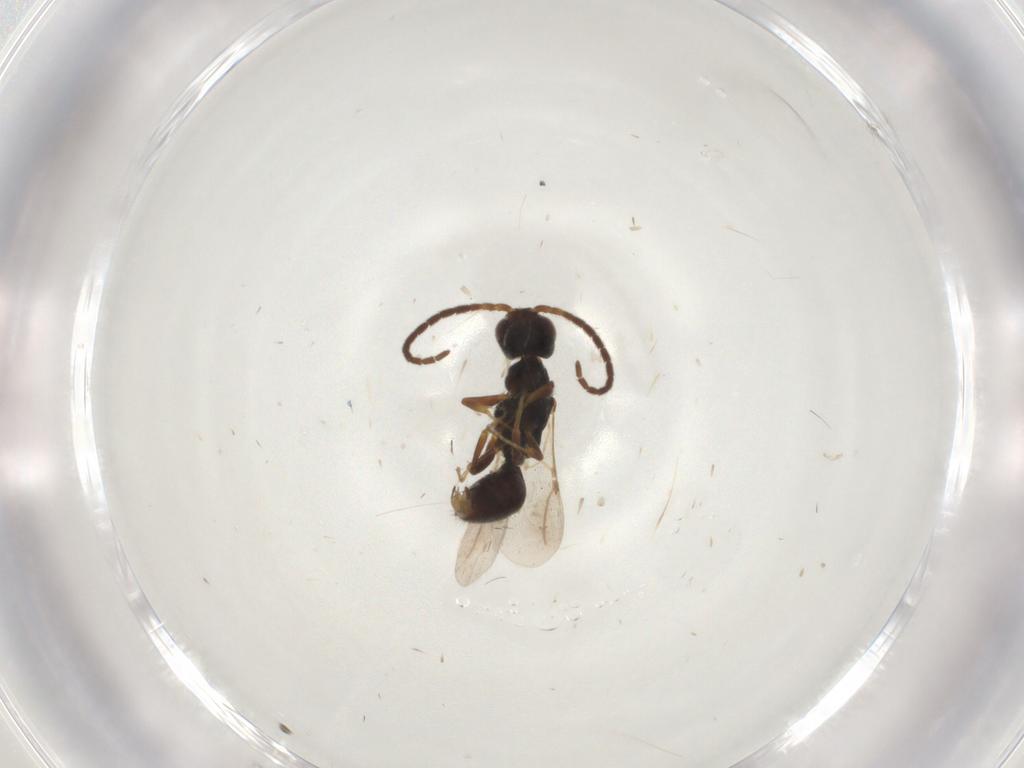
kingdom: Animalia
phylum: Arthropoda
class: Insecta
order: Hymenoptera
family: Bethylidae
